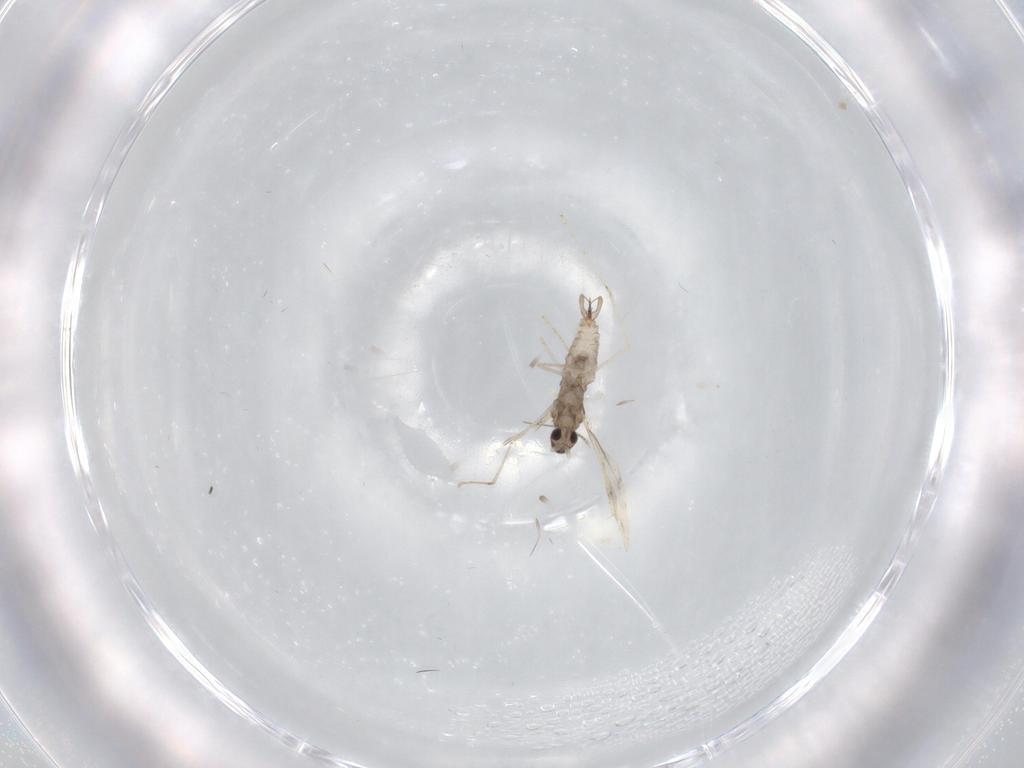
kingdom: Animalia
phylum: Arthropoda
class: Insecta
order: Diptera
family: Cecidomyiidae
